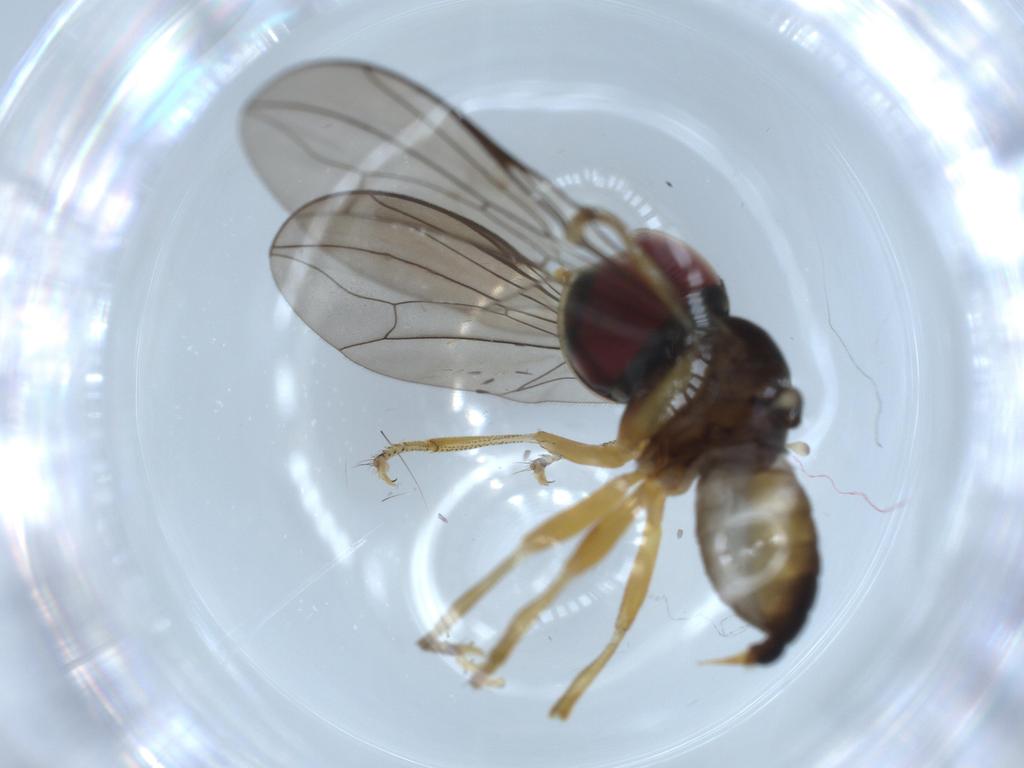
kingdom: Animalia
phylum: Arthropoda
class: Insecta
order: Diptera
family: Pipunculidae
